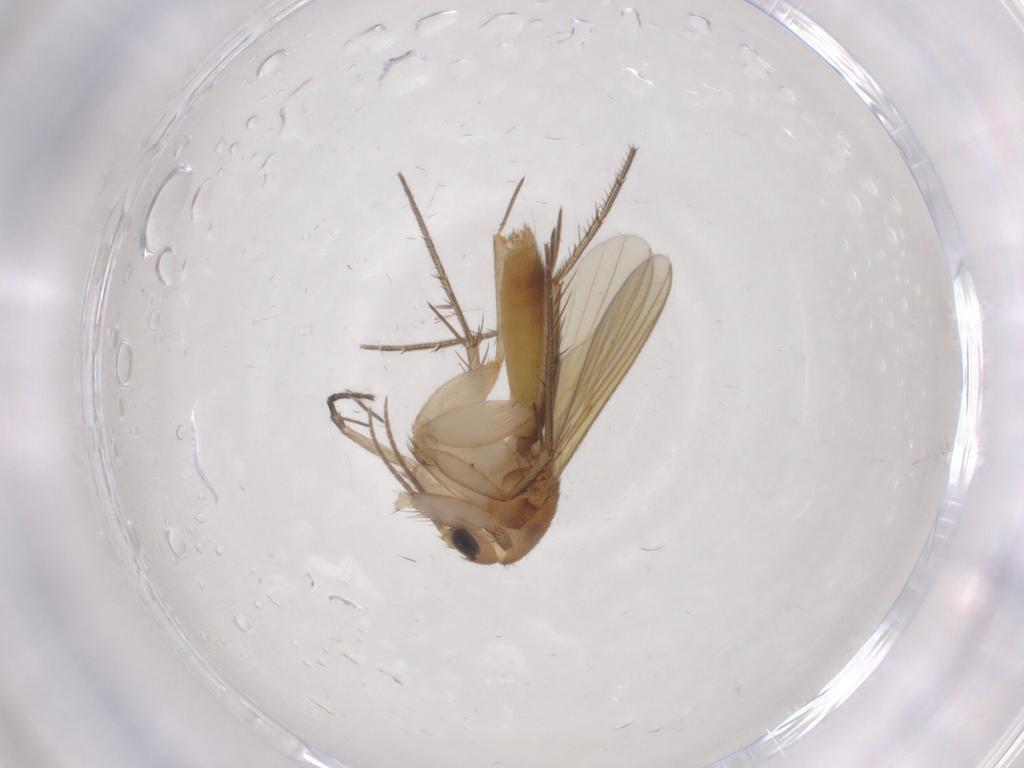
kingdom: Animalia
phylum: Arthropoda
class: Insecta
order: Diptera
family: Mycetophilidae
